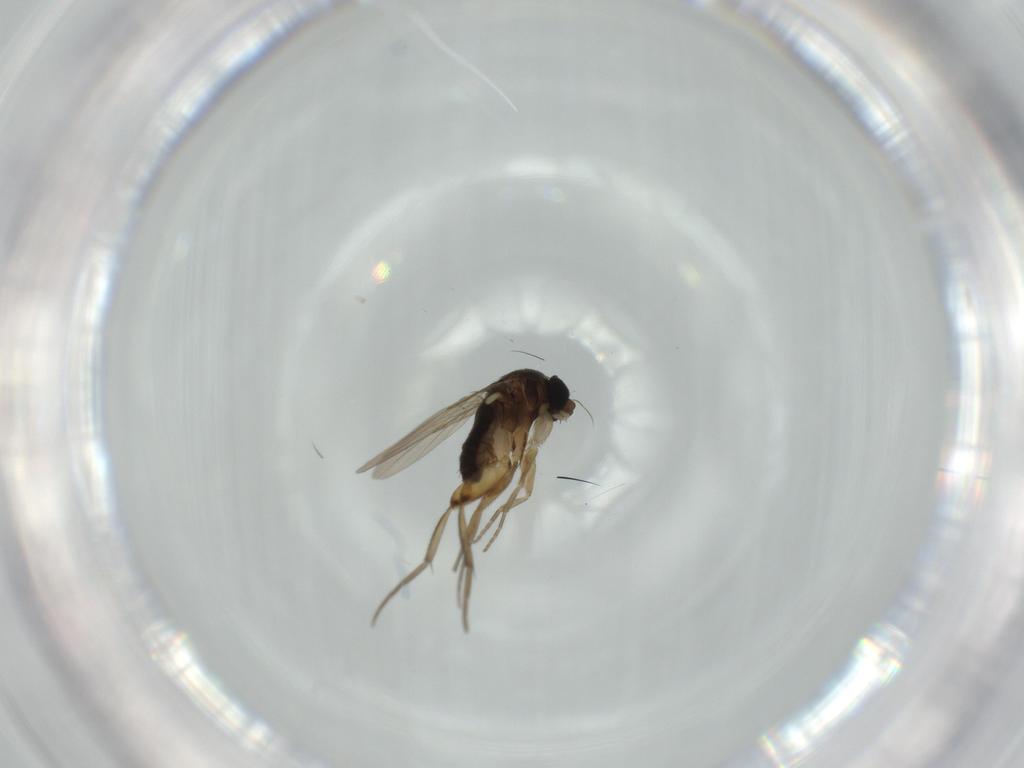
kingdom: Animalia
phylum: Arthropoda
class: Insecta
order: Diptera
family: Phoridae
